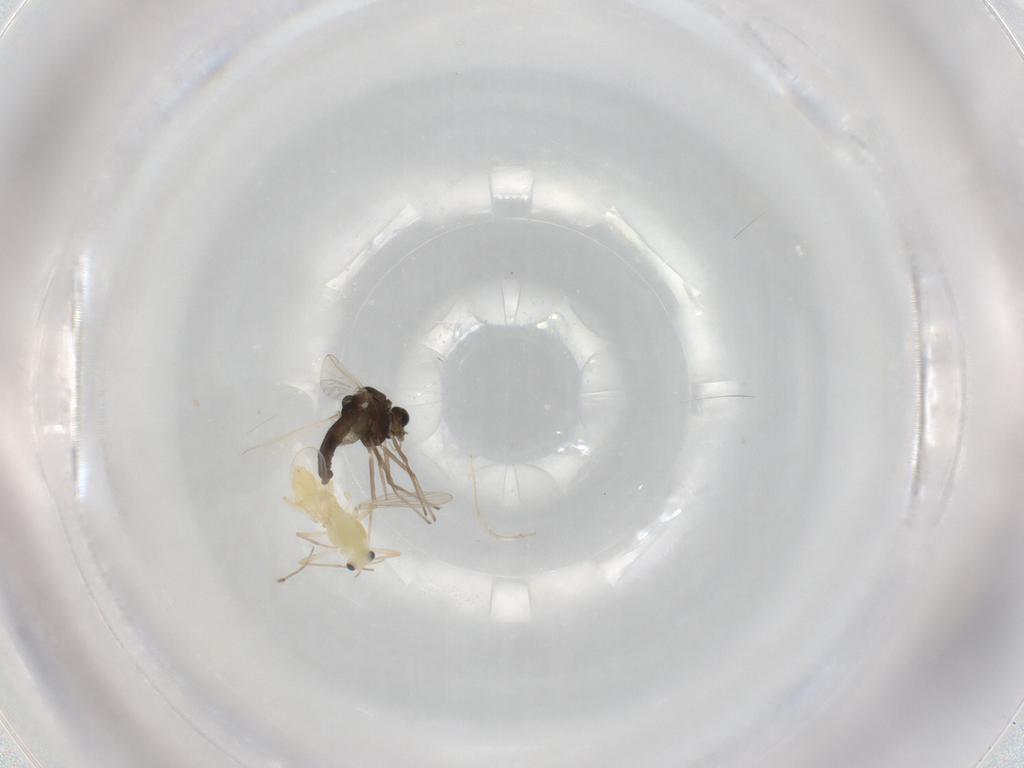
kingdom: Animalia
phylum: Arthropoda
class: Insecta
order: Diptera
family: Chironomidae
